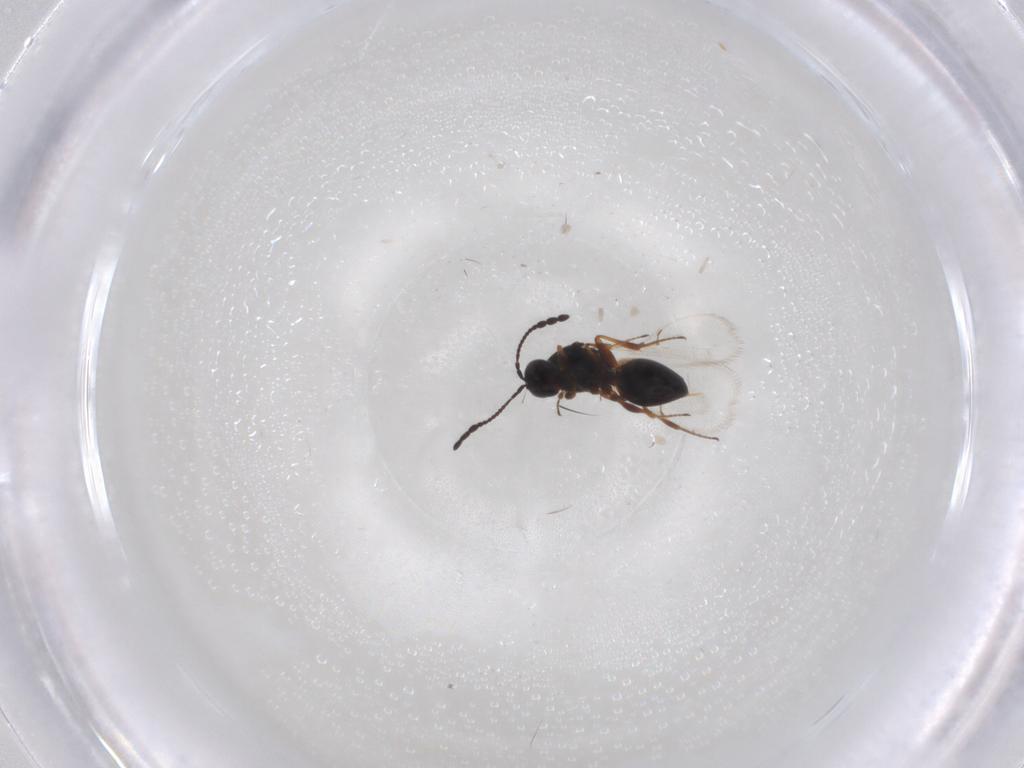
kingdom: Animalia
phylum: Arthropoda
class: Insecta
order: Hymenoptera
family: Figitidae
